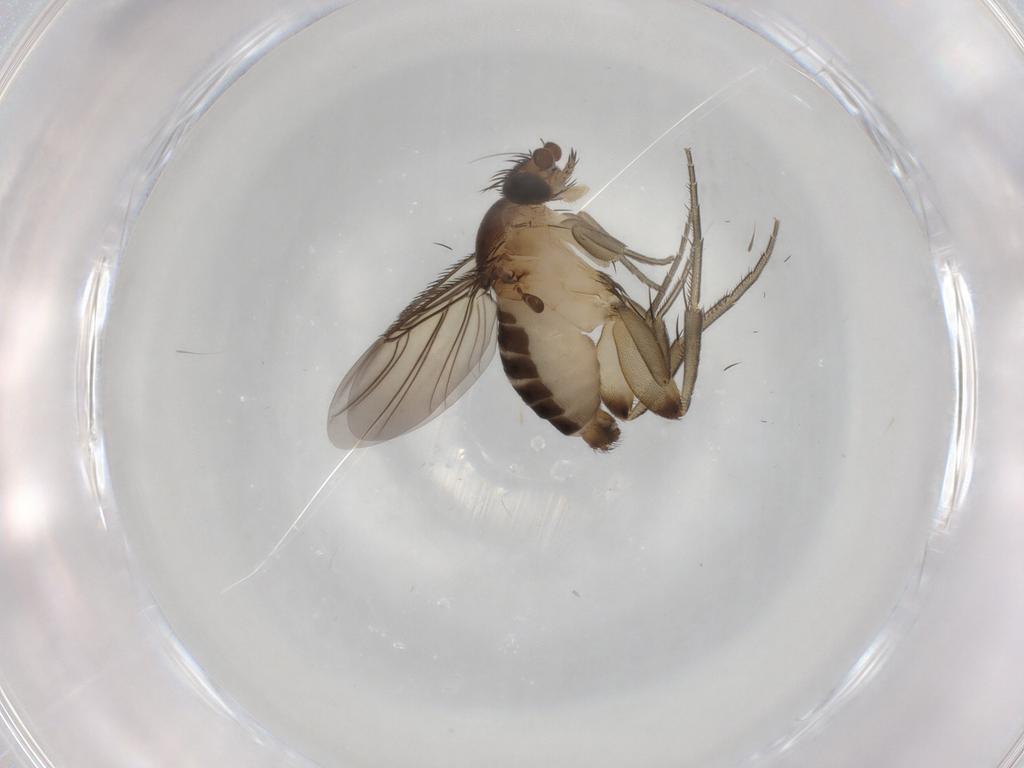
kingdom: Animalia
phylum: Arthropoda
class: Insecta
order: Diptera
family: Phoridae
